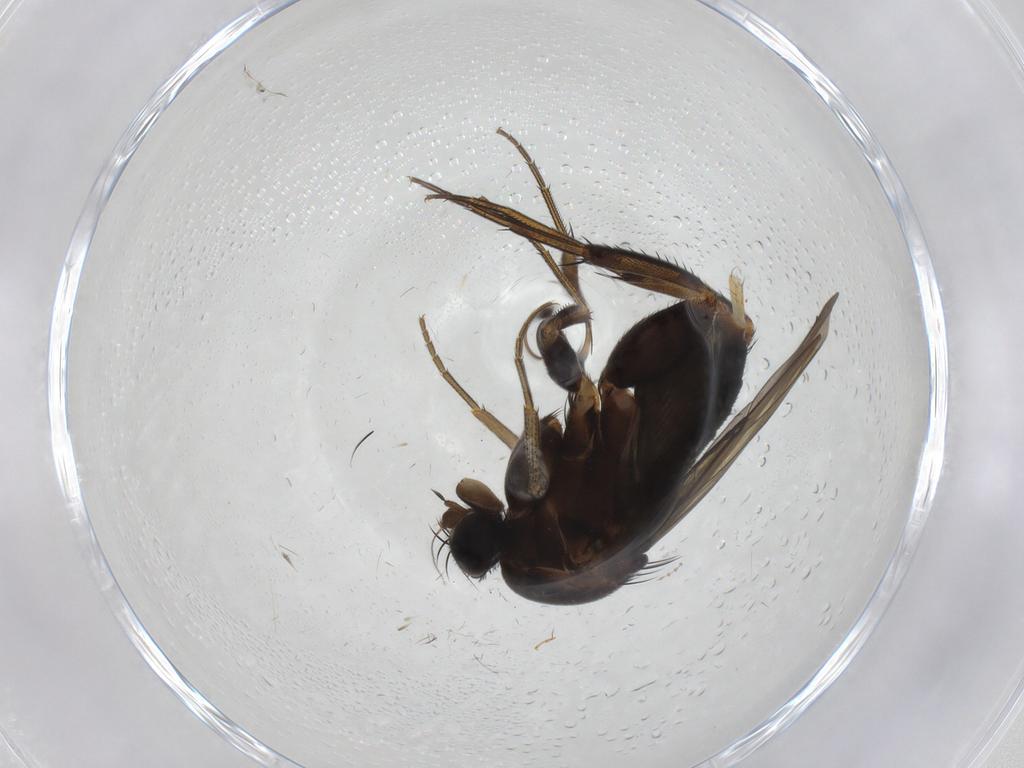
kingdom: Animalia
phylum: Arthropoda
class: Insecta
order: Diptera
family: Phoridae
